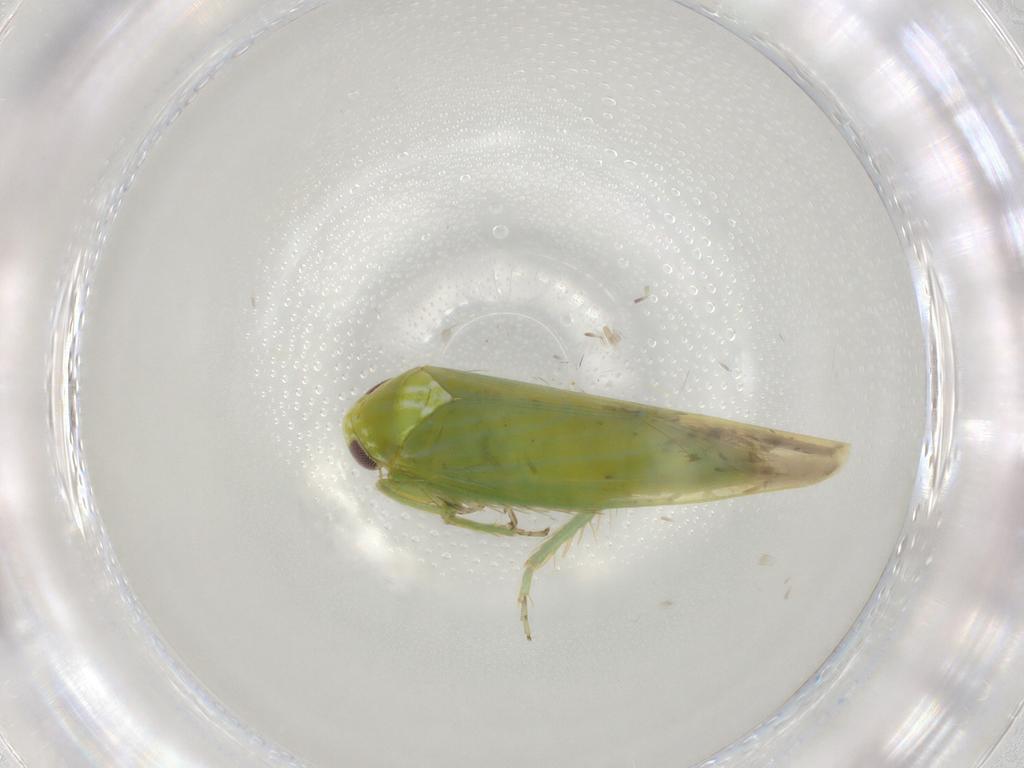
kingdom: Animalia
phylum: Arthropoda
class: Insecta
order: Hemiptera
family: Cicadellidae
